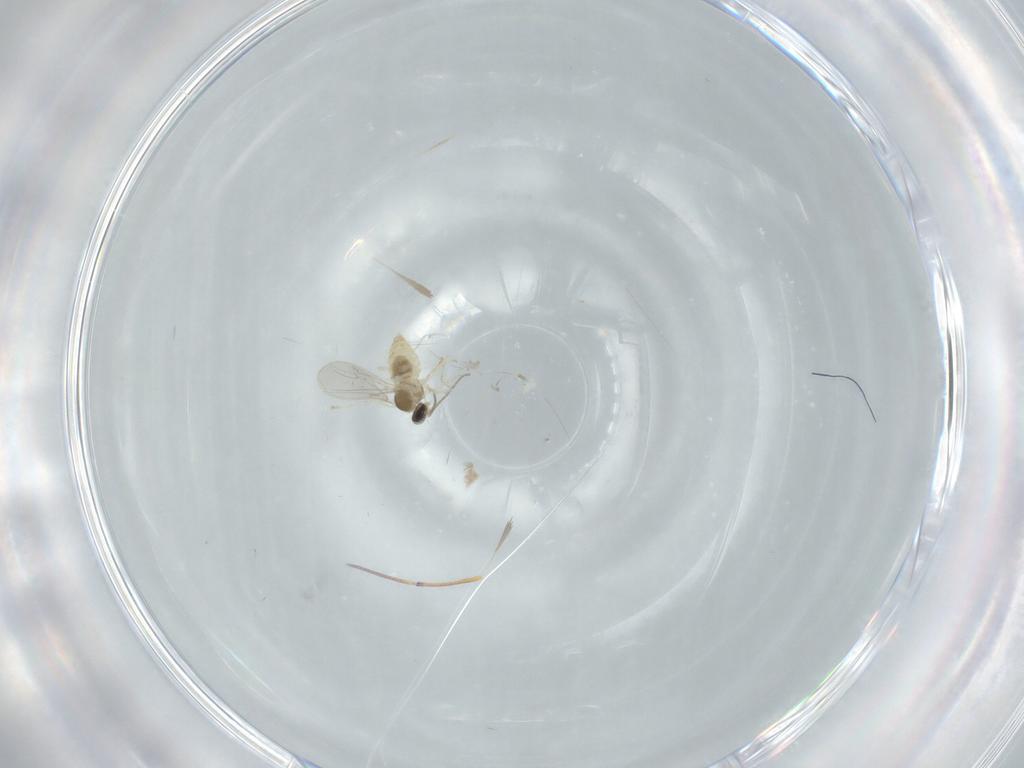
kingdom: Animalia
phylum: Arthropoda
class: Insecta
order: Diptera
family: Cecidomyiidae
